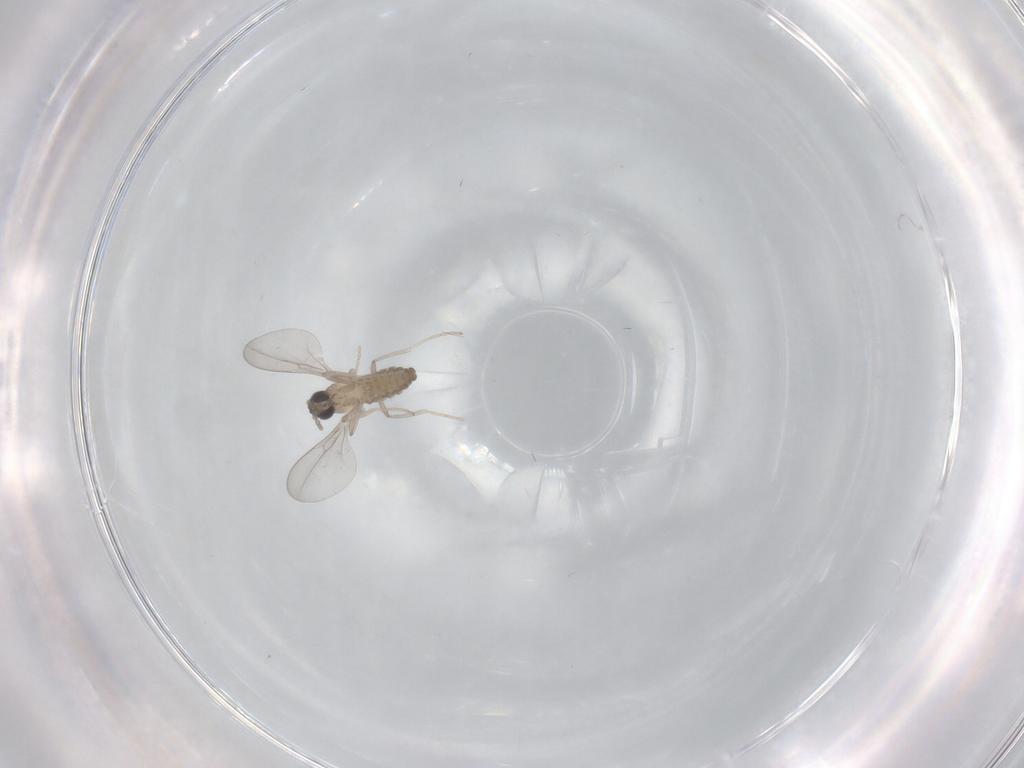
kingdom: Animalia
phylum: Arthropoda
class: Insecta
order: Diptera
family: Cecidomyiidae
